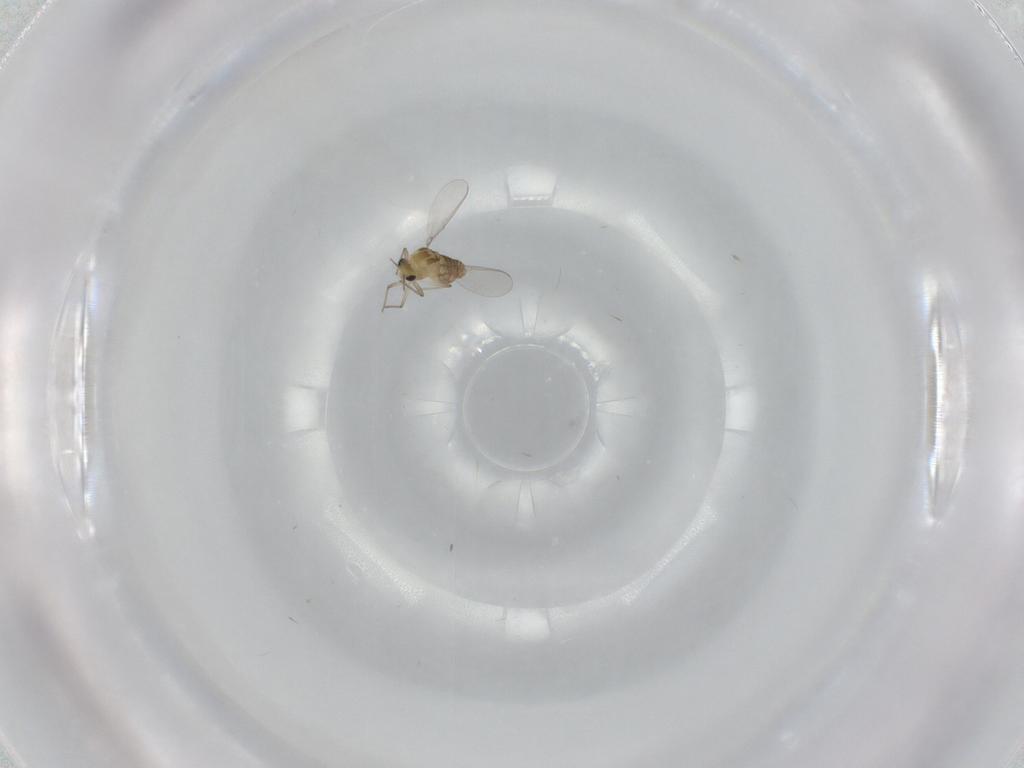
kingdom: Animalia
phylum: Arthropoda
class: Insecta
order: Diptera
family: Chironomidae
